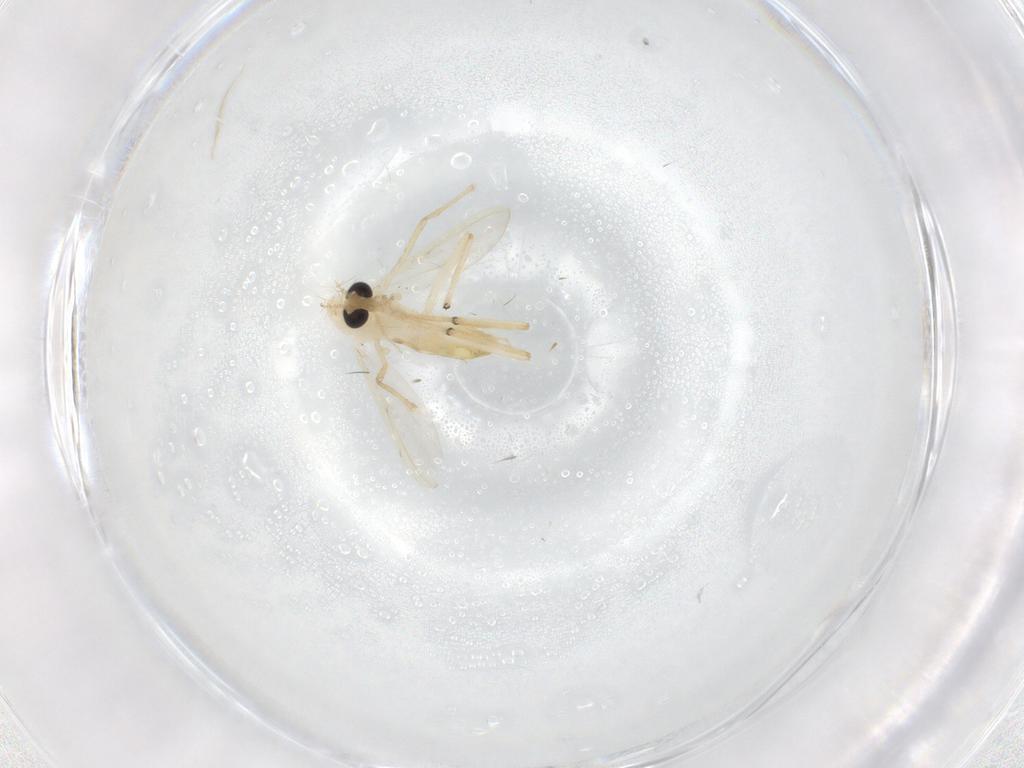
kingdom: Animalia
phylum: Arthropoda
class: Insecta
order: Diptera
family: Chironomidae
